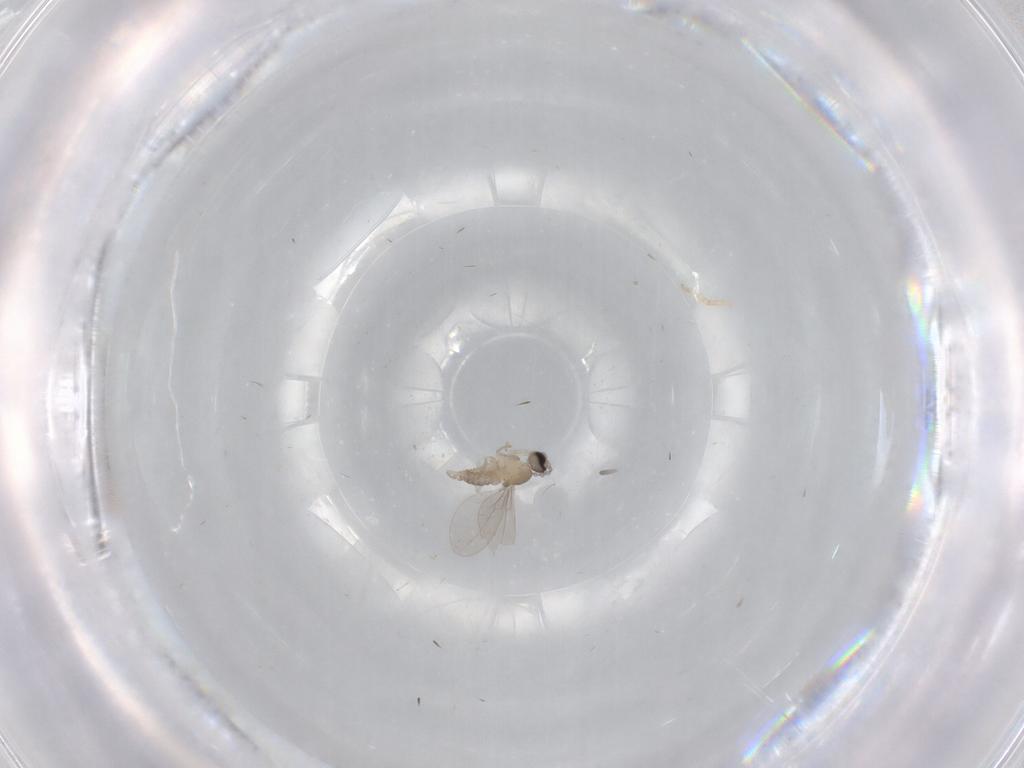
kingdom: Animalia
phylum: Arthropoda
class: Insecta
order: Diptera
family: Cecidomyiidae
